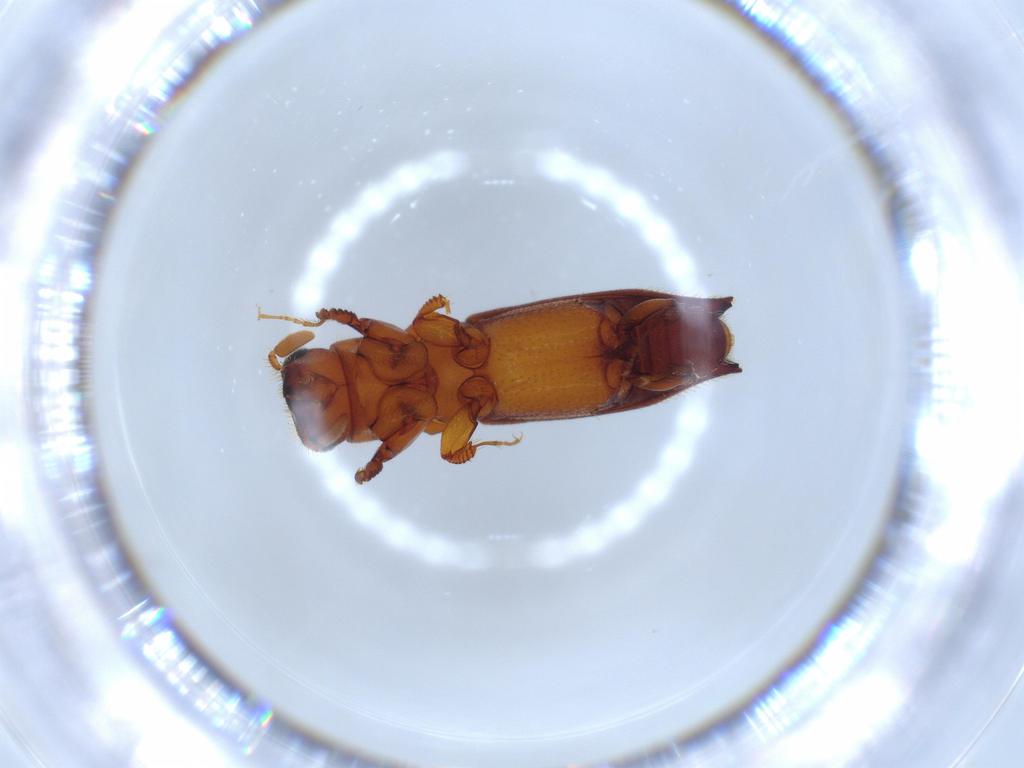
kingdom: Animalia
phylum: Arthropoda
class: Insecta
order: Coleoptera
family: Curculionidae
